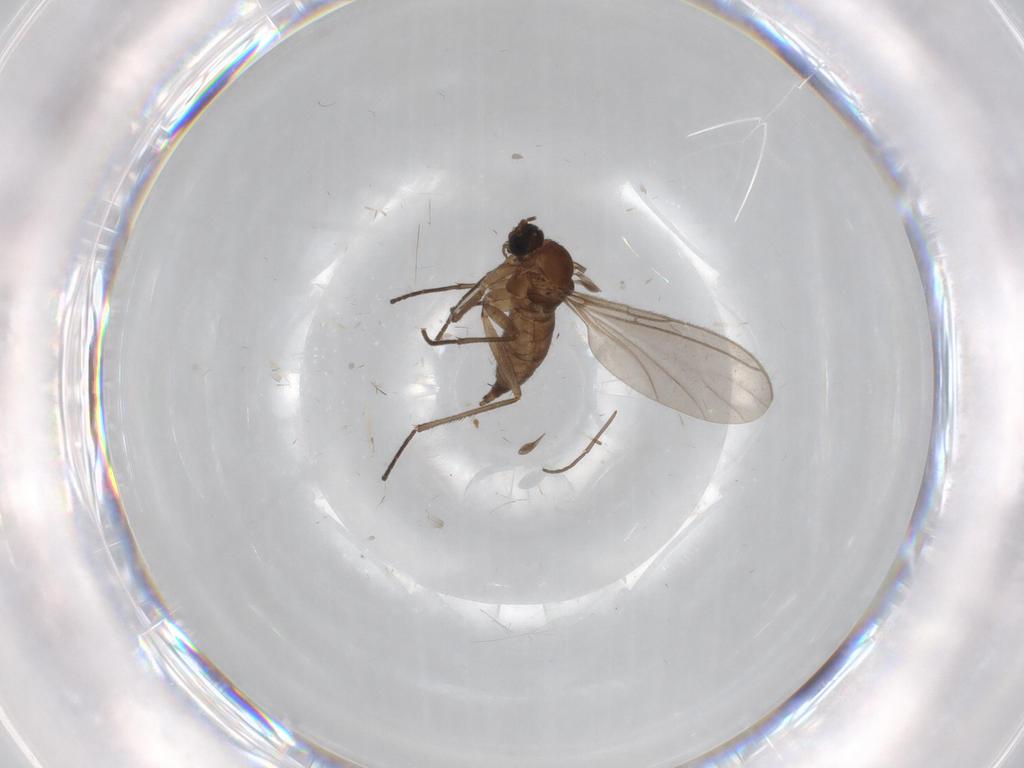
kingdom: Animalia
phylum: Arthropoda
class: Insecta
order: Diptera
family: Sciaridae
